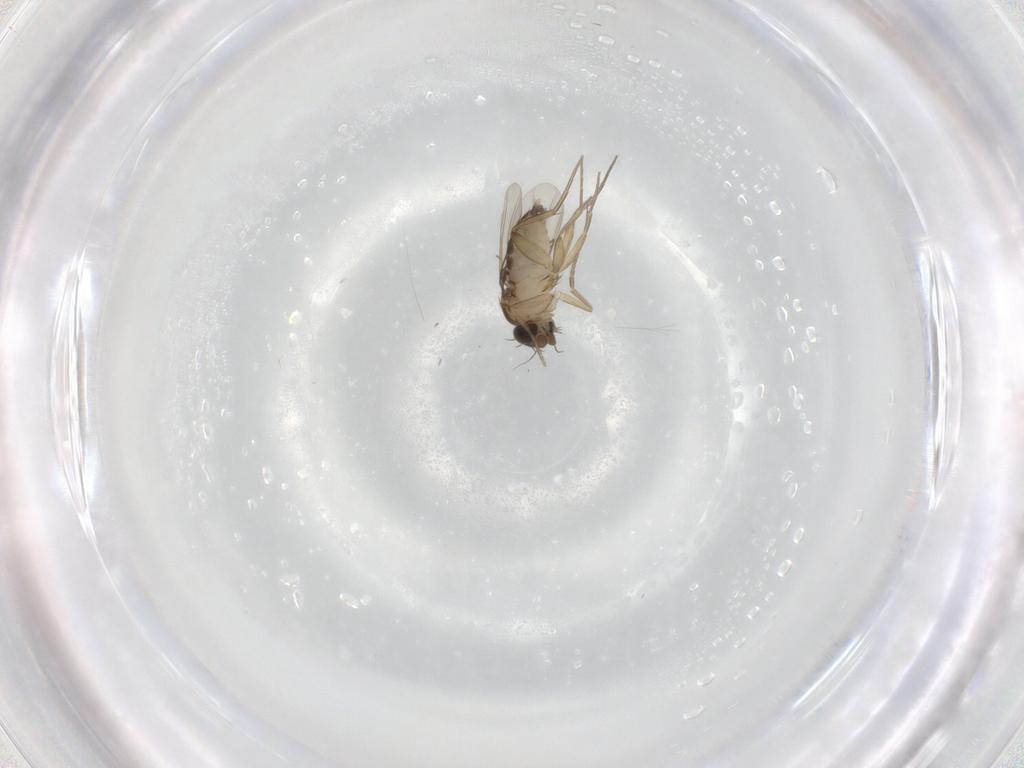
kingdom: Animalia
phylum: Arthropoda
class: Insecta
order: Diptera
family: Phoridae
